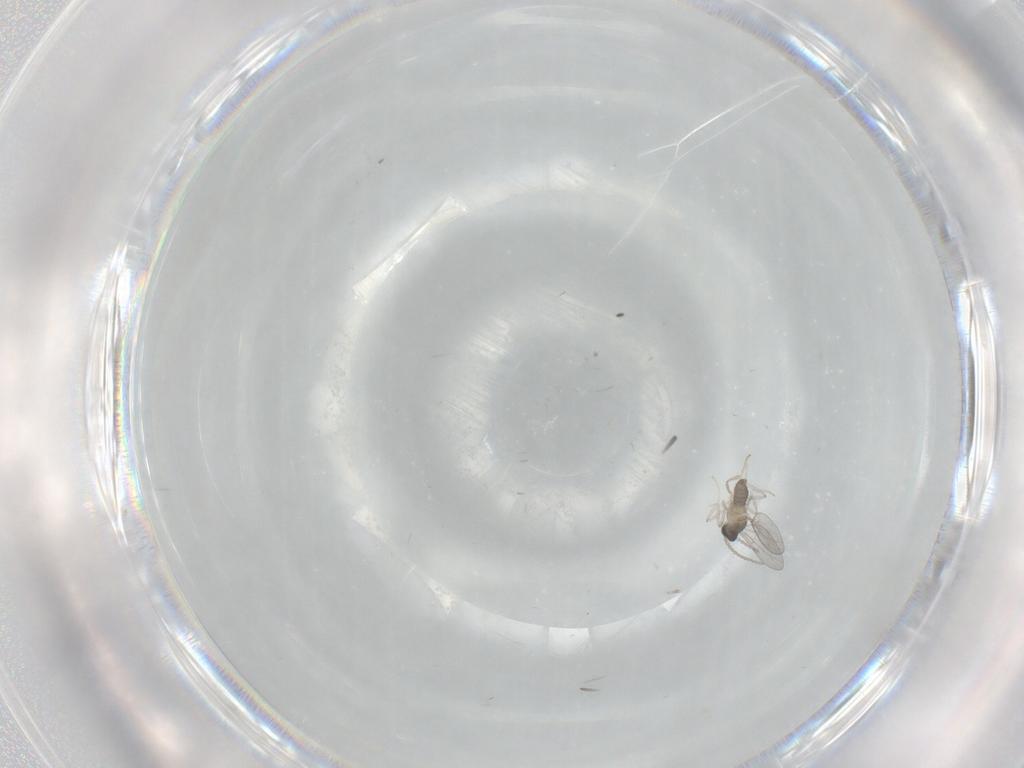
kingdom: Animalia
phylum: Arthropoda
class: Insecta
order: Diptera
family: Cecidomyiidae
